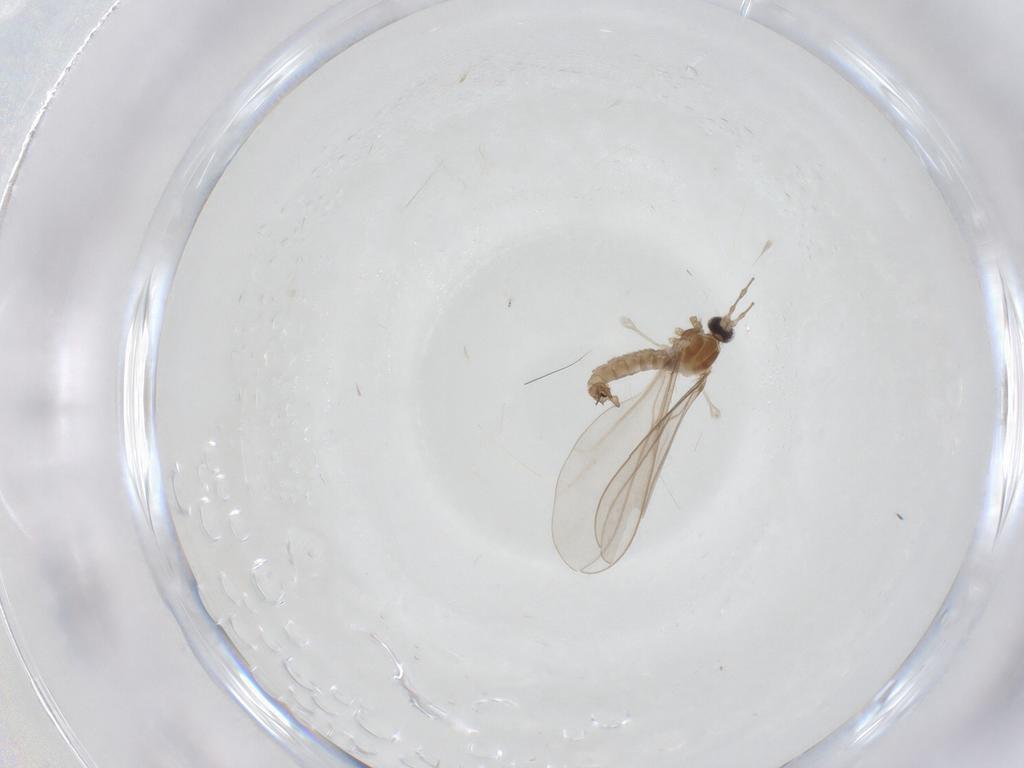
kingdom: Animalia
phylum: Arthropoda
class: Insecta
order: Diptera
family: Cecidomyiidae
